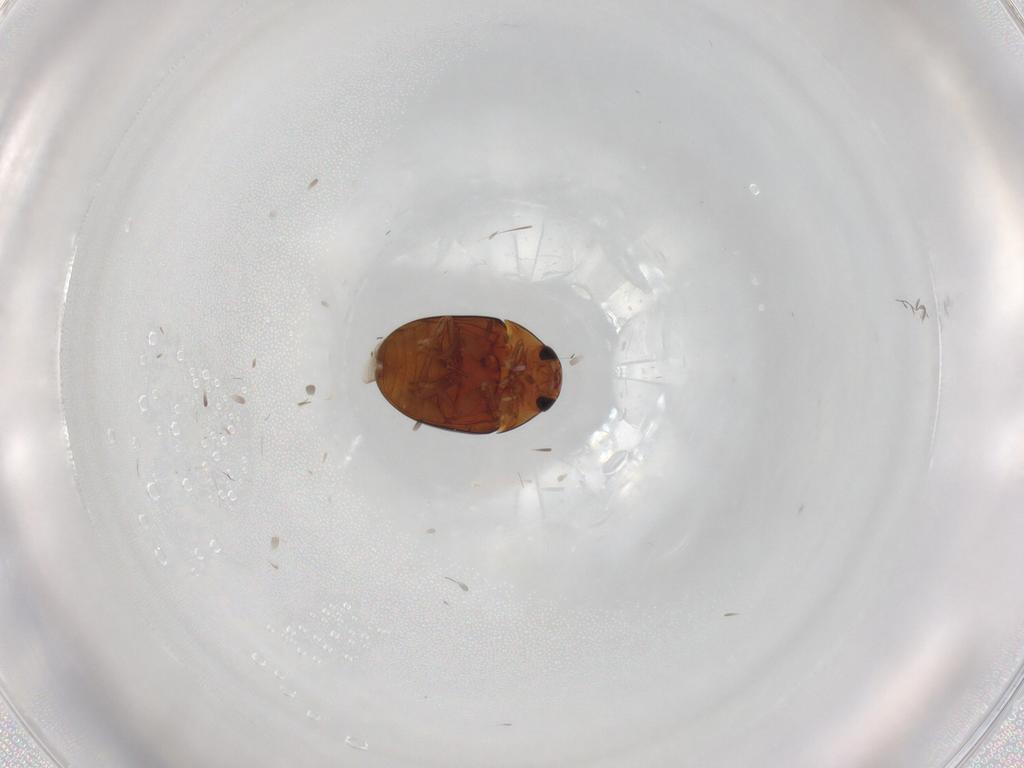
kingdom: Animalia
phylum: Arthropoda
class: Insecta
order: Coleoptera
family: Phalacridae
